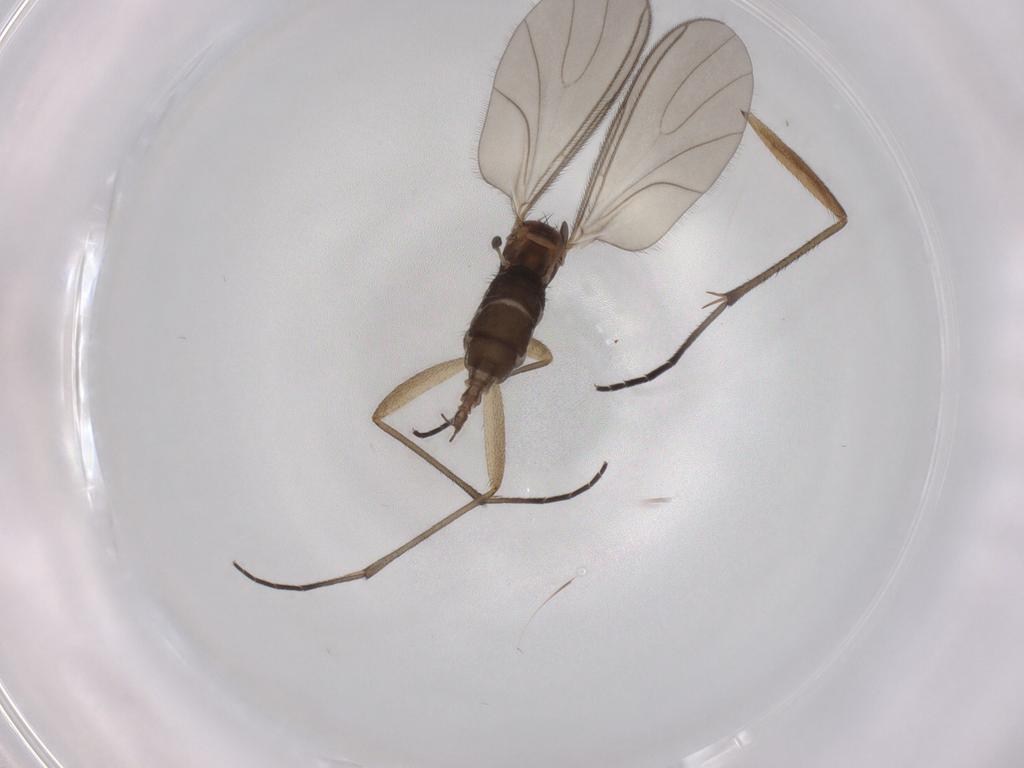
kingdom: Animalia
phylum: Arthropoda
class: Insecta
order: Diptera
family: Sciaridae
